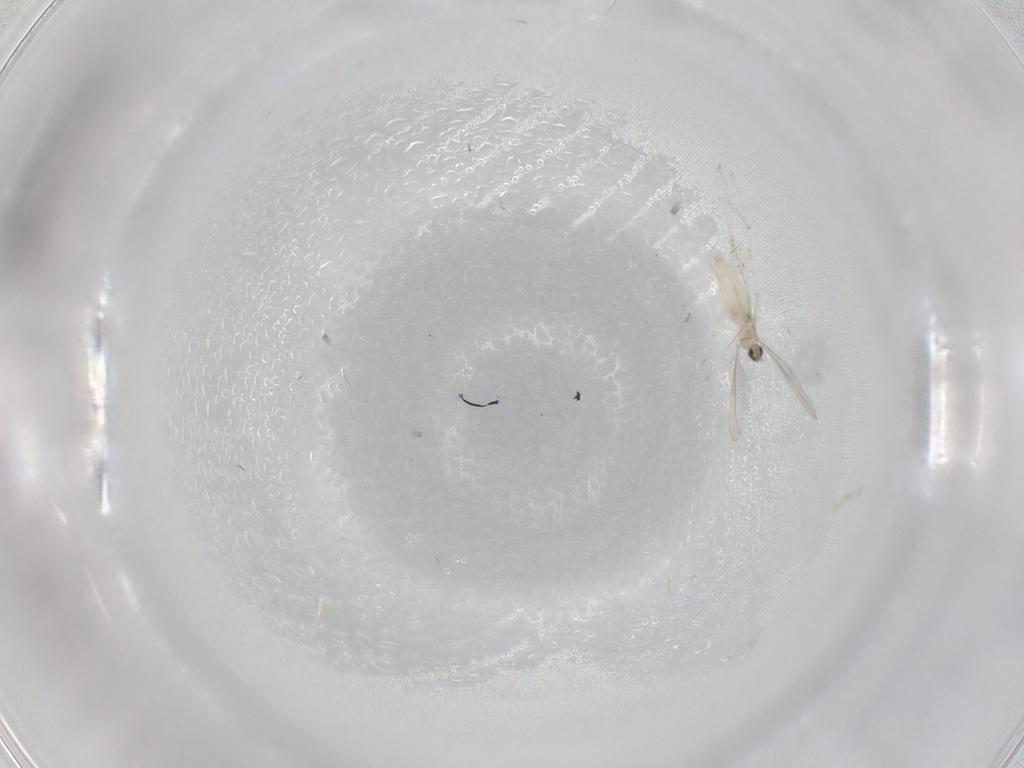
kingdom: Animalia
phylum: Arthropoda
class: Insecta
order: Diptera
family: Cecidomyiidae
